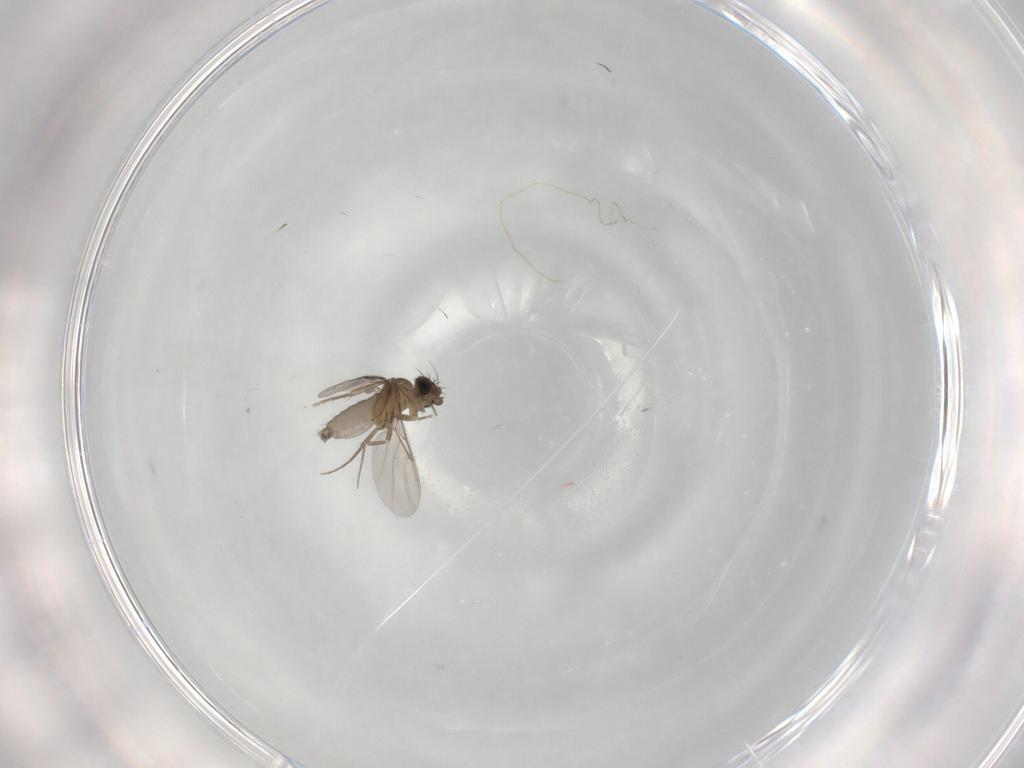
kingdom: Animalia
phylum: Arthropoda
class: Insecta
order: Diptera
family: Phoridae
